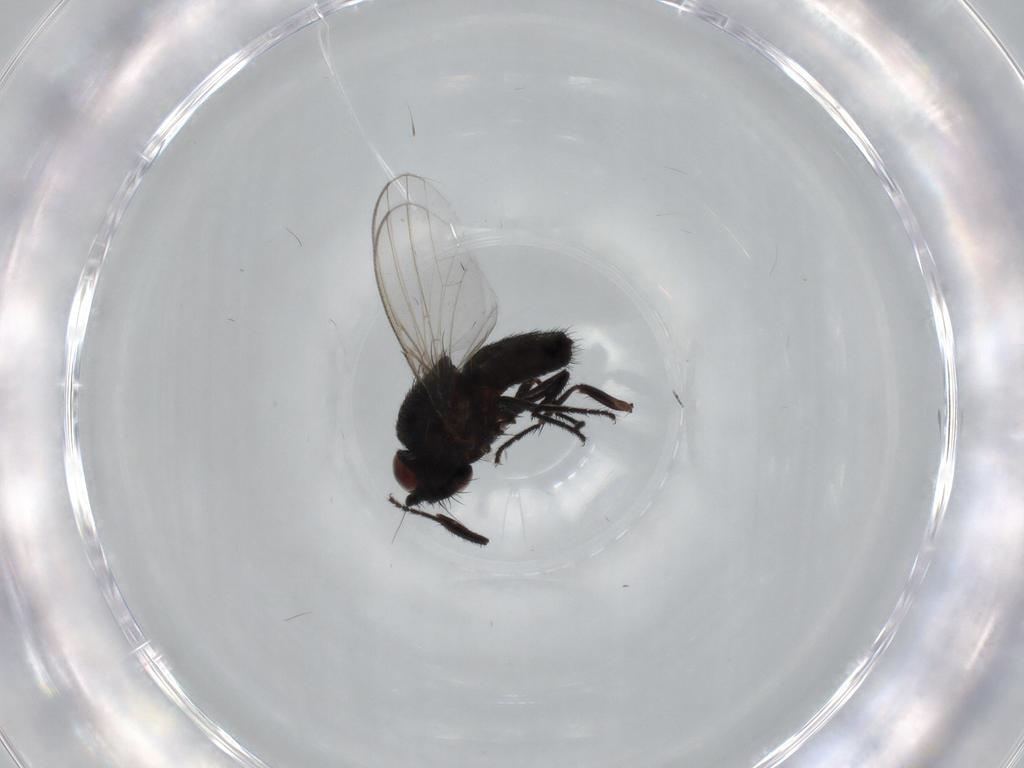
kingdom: Animalia
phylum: Arthropoda
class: Insecta
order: Diptera
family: Milichiidae
